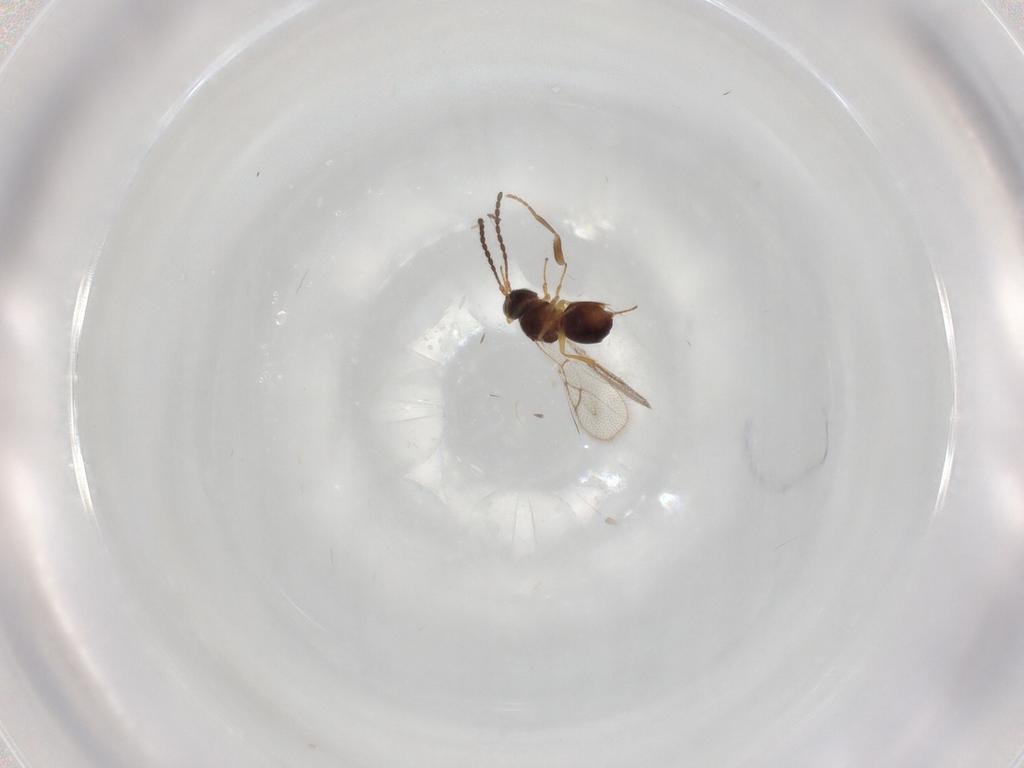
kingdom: Animalia
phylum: Arthropoda
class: Insecta
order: Hymenoptera
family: Figitidae
